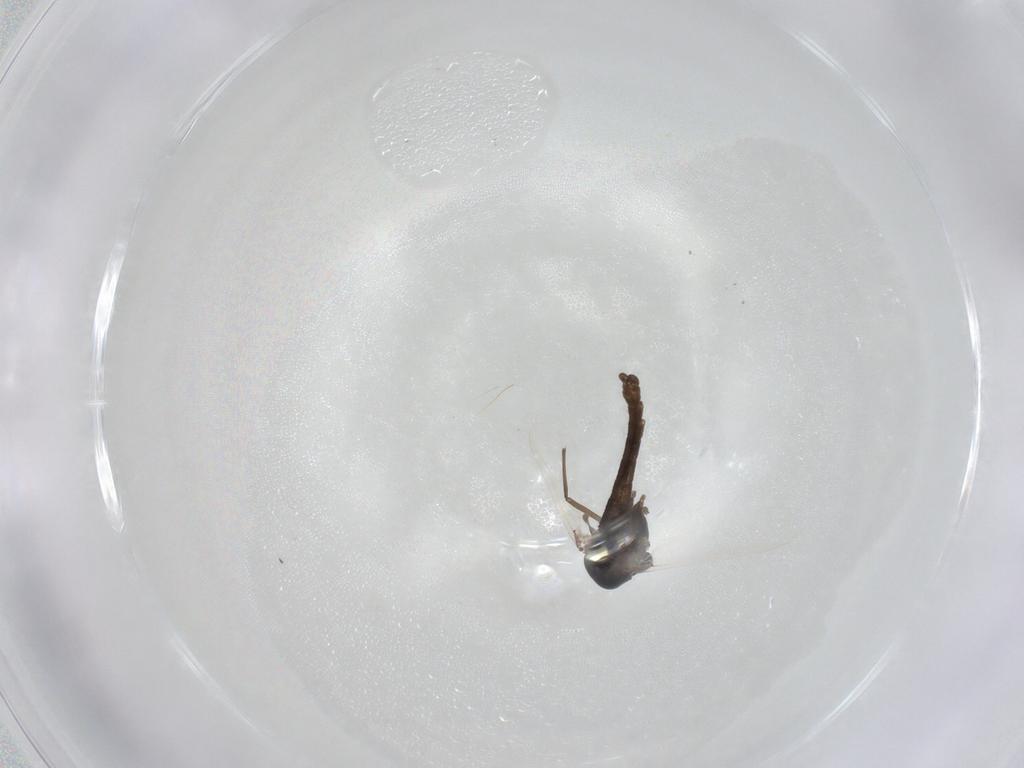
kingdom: Animalia
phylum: Arthropoda
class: Insecta
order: Diptera
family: Chironomidae
